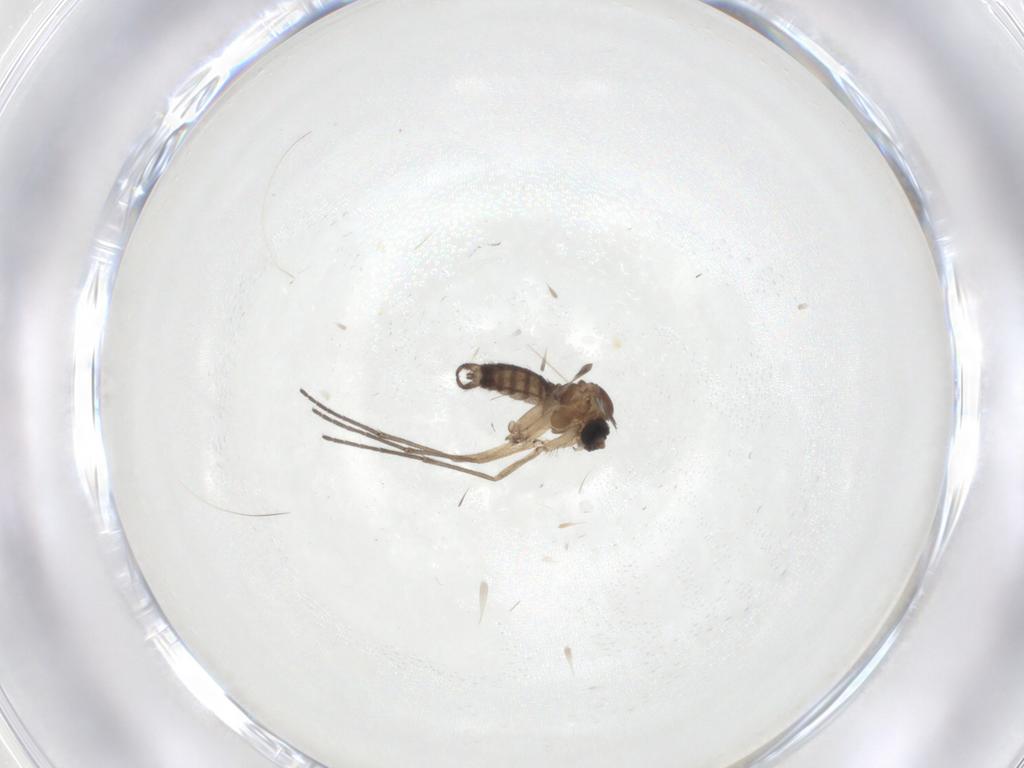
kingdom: Animalia
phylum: Arthropoda
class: Insecta
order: Diptera
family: Sciaridae
